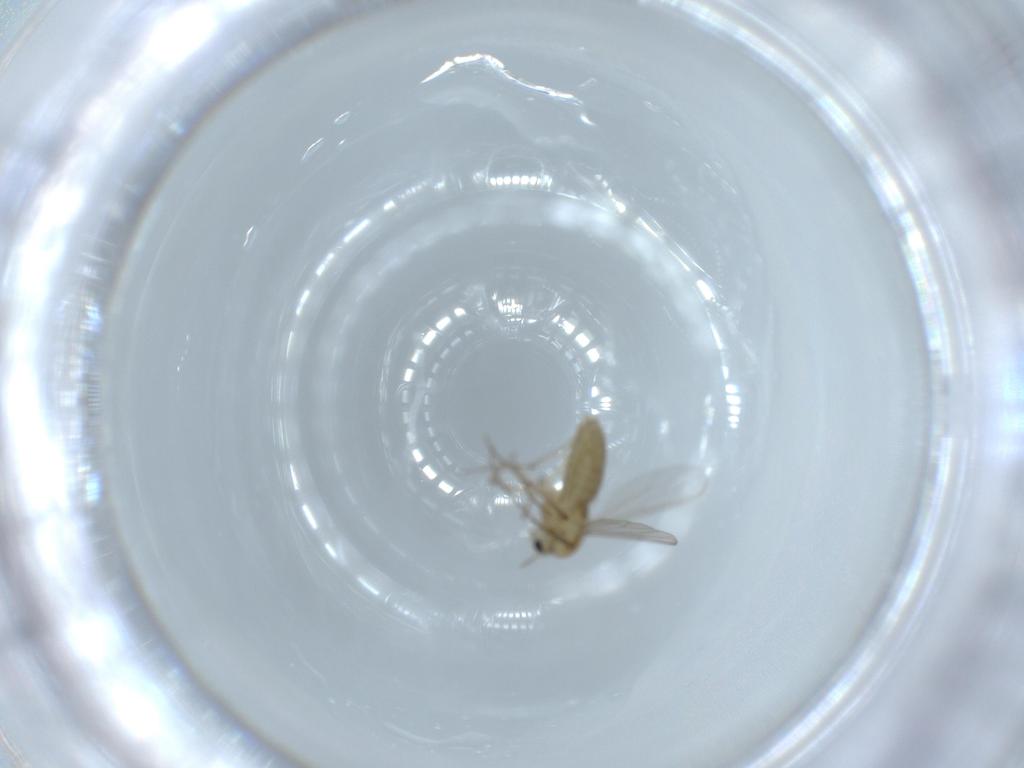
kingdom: Animalia
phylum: Arthropoda
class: Insecta
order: Diptera
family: Chironomidae
